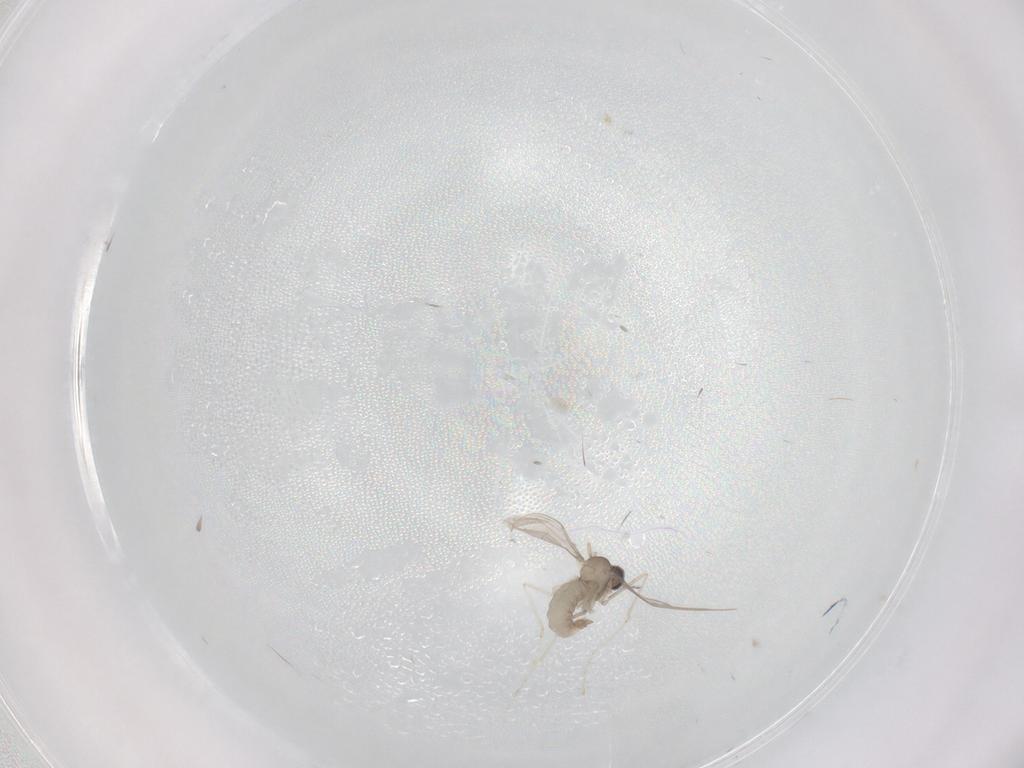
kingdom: Animalia
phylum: Arthropoda
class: Insecta
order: Diptera
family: Cecidomyiidae
